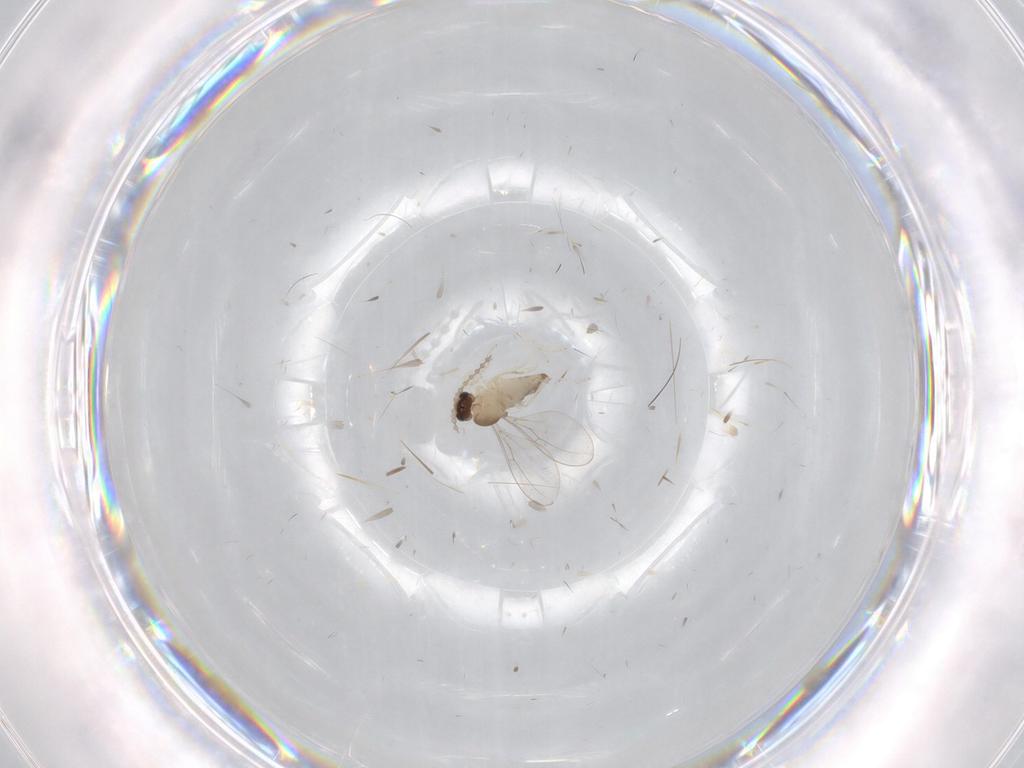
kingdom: Animalia
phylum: Arthropoda
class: Insecta
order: Diptera
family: Cecidomyiidae
